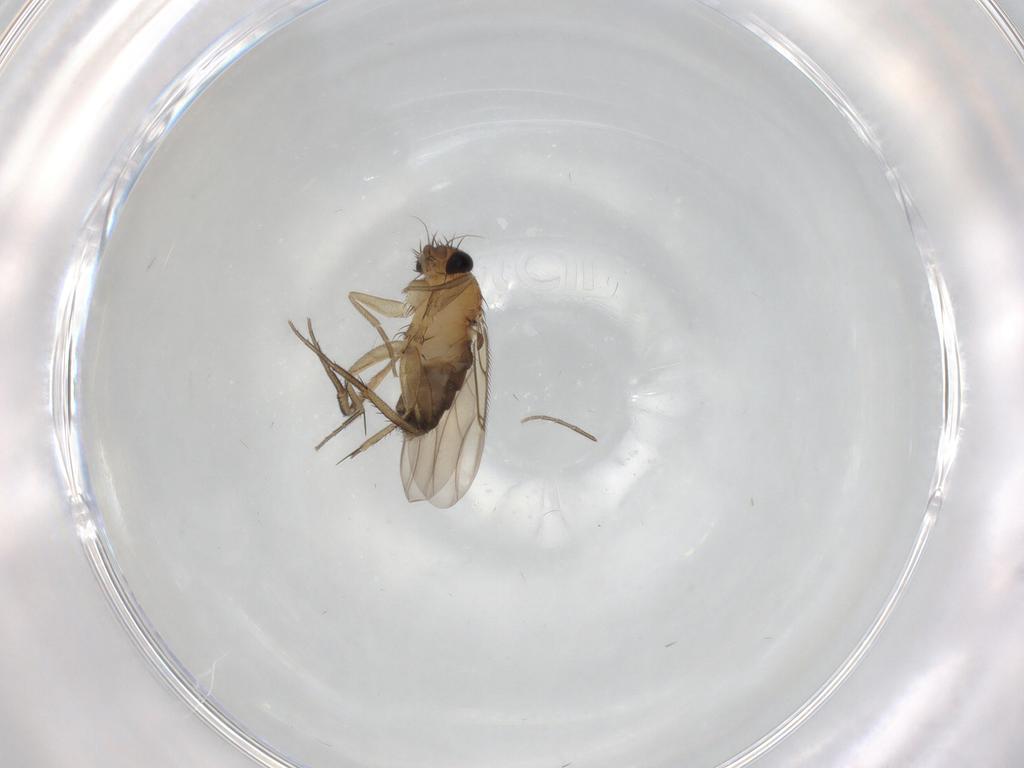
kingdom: Animalia
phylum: Arthropoda
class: Insecta
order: Diptera
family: Phoridae
